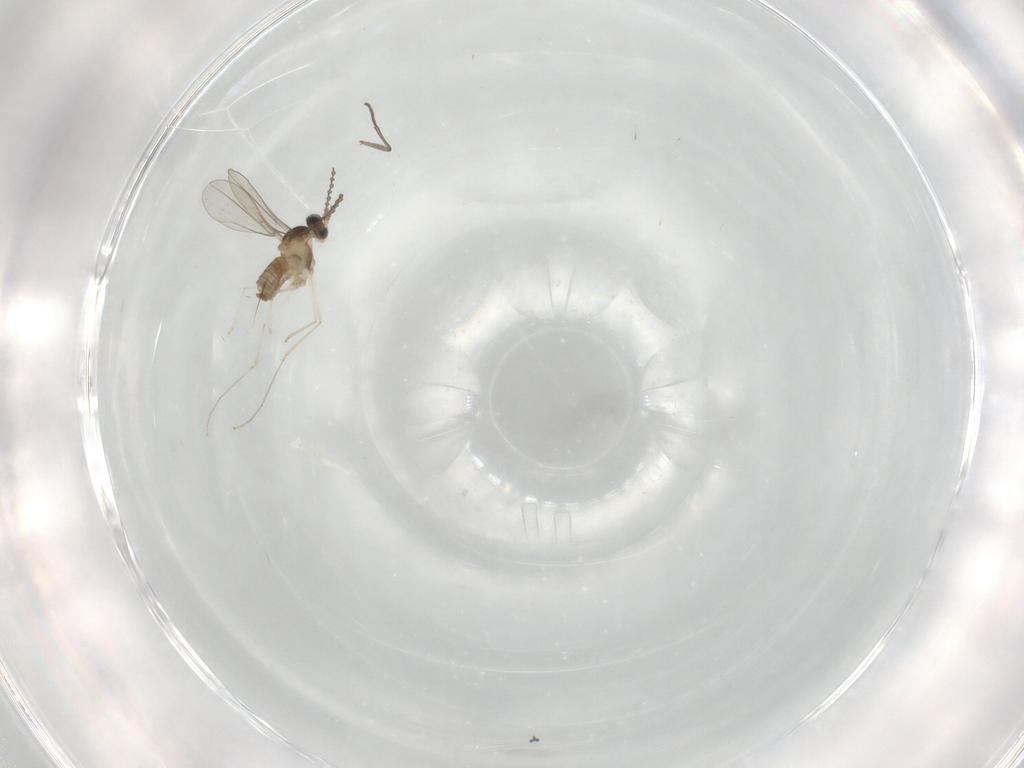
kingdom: Animalia
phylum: Arthropoda
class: Insecta
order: Diptera
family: Cecidomyiidae
